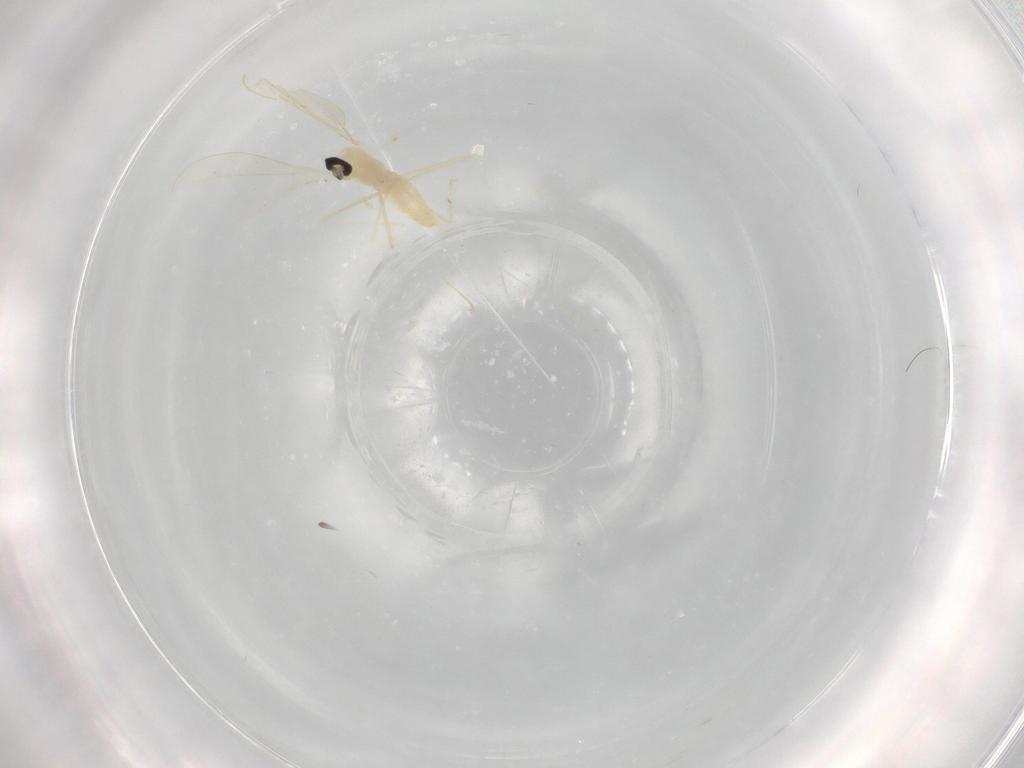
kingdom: Animalia
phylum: Arthropoda
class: Insecta
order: Diptera
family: Cecidomyiidae
